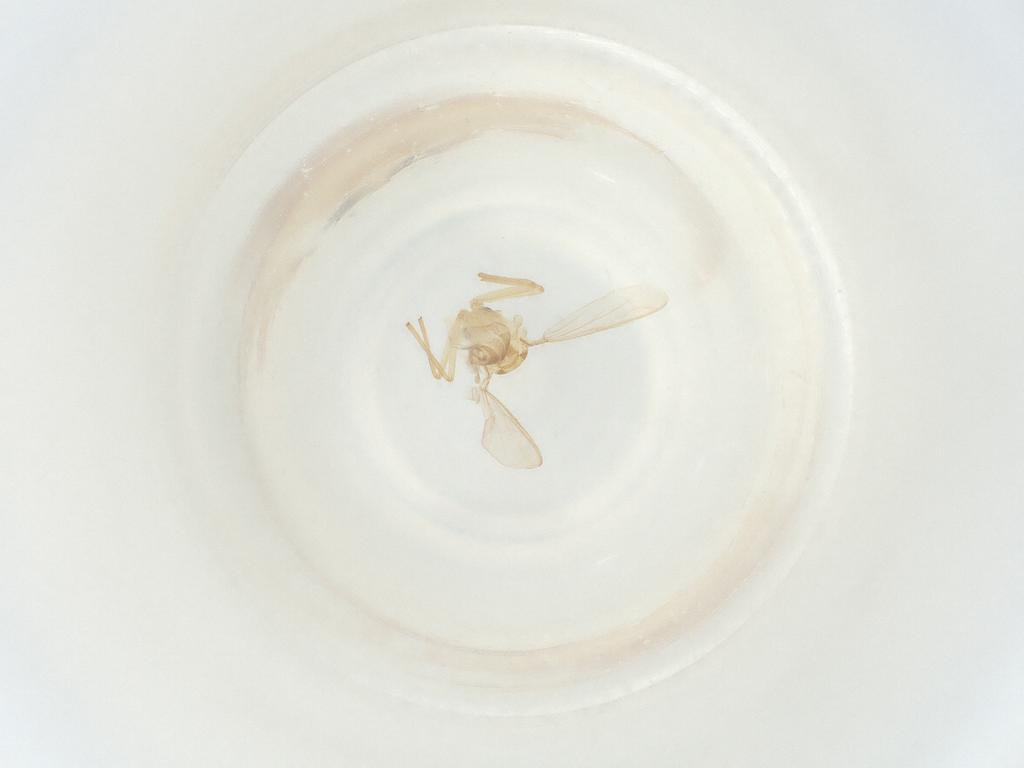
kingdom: Animalia
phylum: Arthropoda
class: Insecta
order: Diptera
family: Chironomidae
